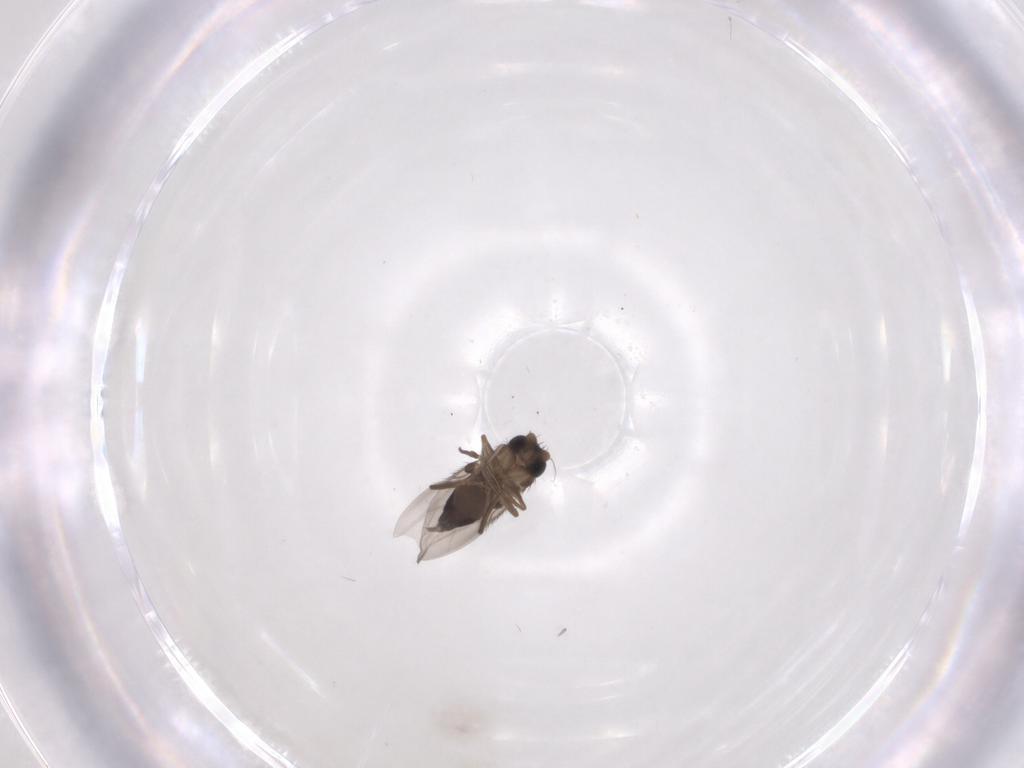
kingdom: Animalia
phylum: Arthropoda
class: Insecta
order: Diptera
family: Phoridae
